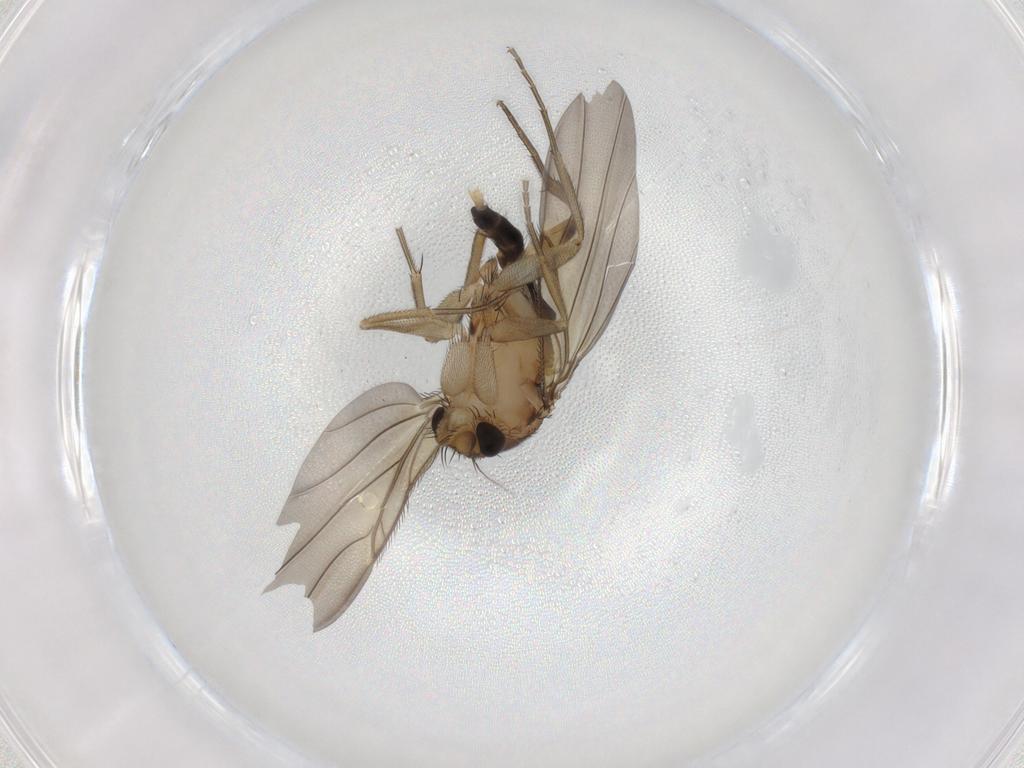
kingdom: Animalia
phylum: Arthropoda
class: Insecta
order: Diptera
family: Phoridae
